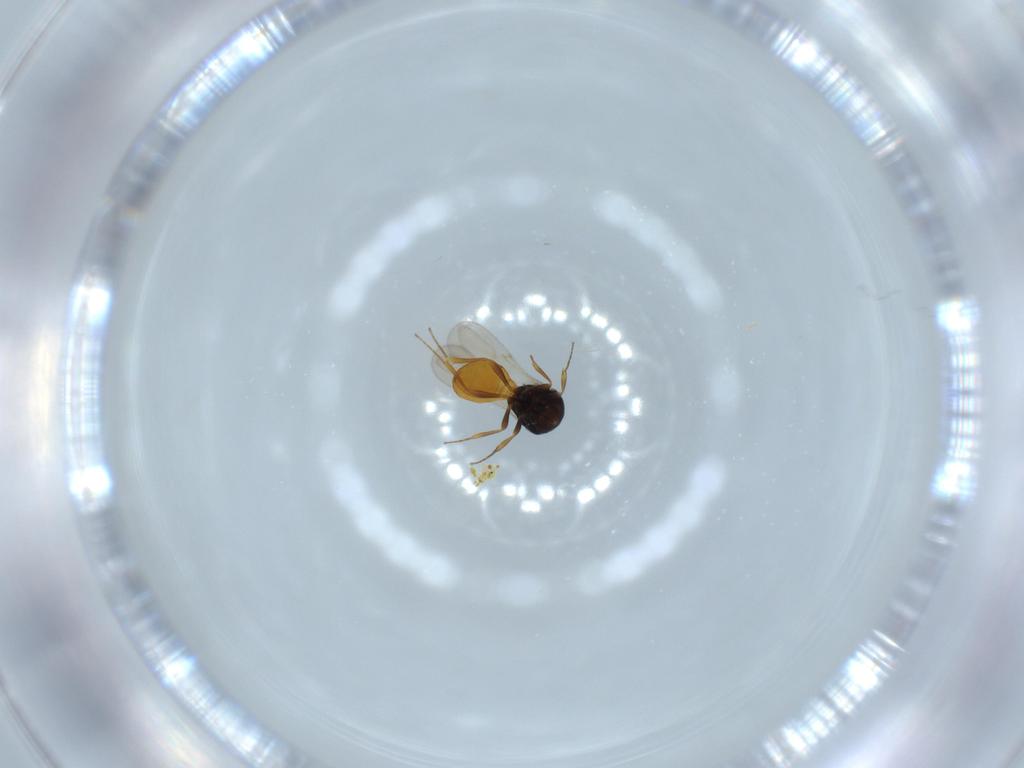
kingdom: Animalia
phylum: Arthropoda
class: Insecta
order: Hymenoptera
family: Scelionidae
